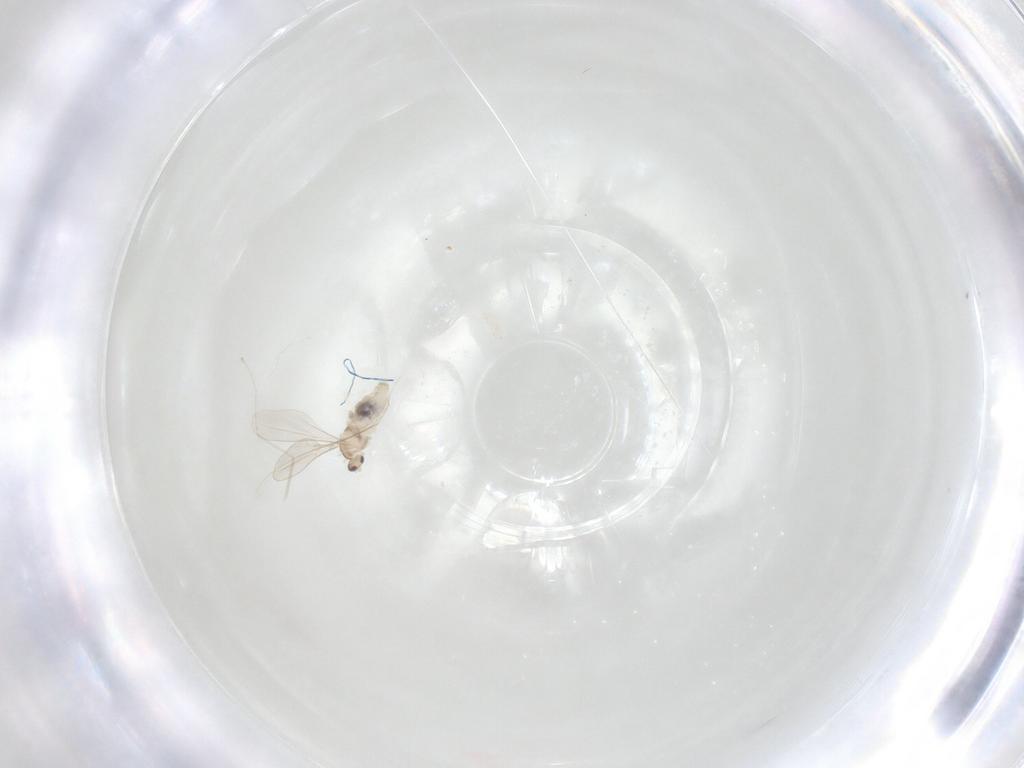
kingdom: Animalia
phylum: Arthropoda
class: Insecta
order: Diptera
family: Cecidomyiidae
